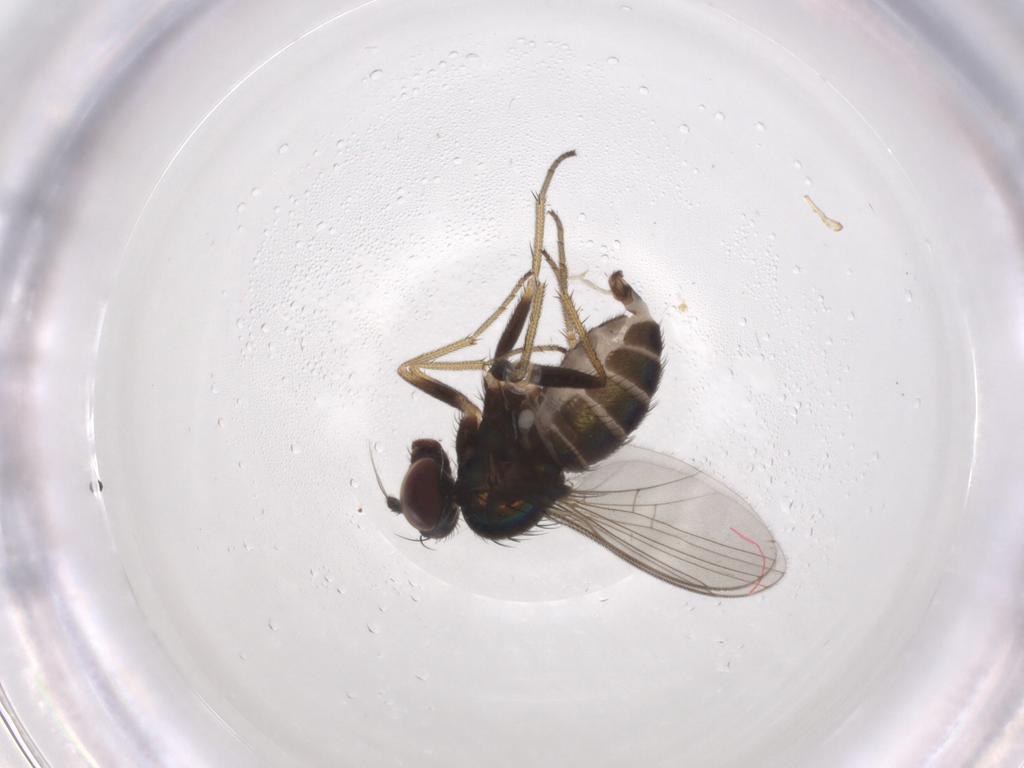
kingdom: Animalia
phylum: Arthropoda
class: Insecta
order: Diptera
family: Dolichopodidae
